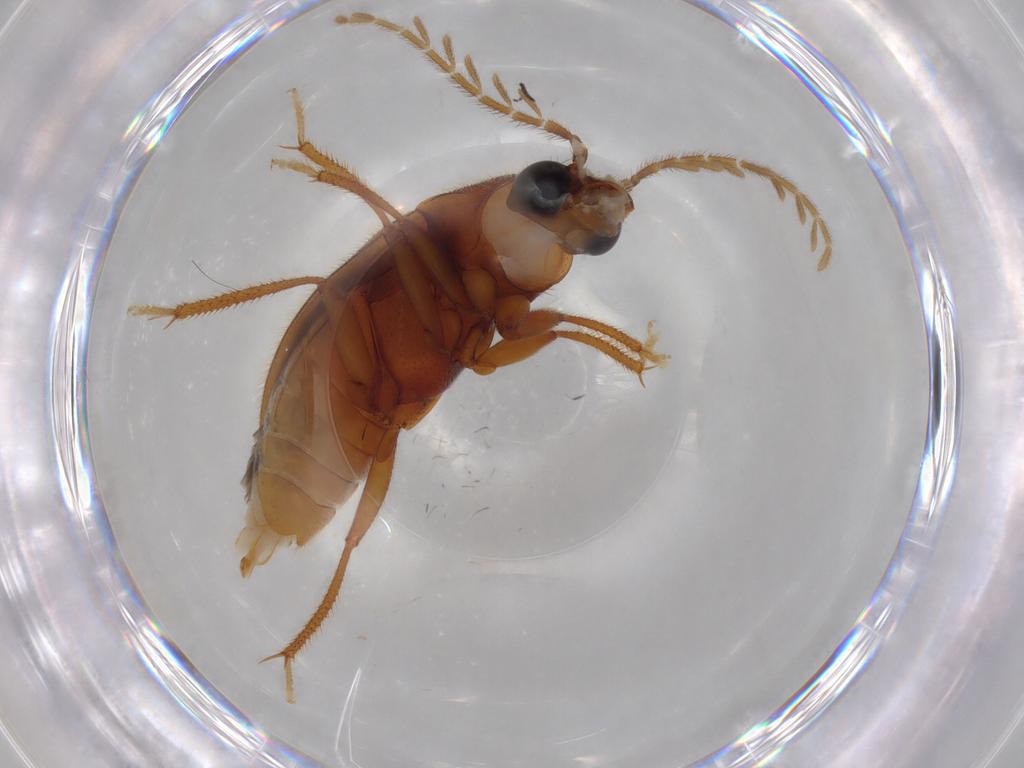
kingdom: Animalia
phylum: Arthropoda
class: Insecta
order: Coleoptera
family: Ptilodactylidae
